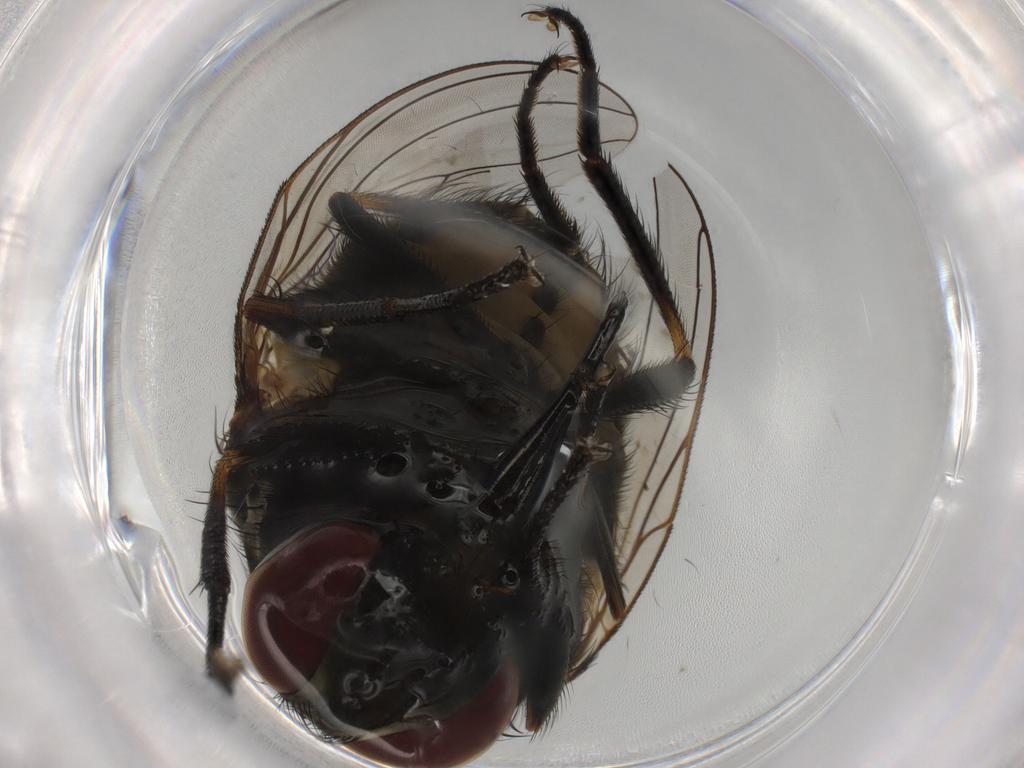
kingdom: Animalia
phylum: Arthropoda
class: Insecta
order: Diptera
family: Muscidae
